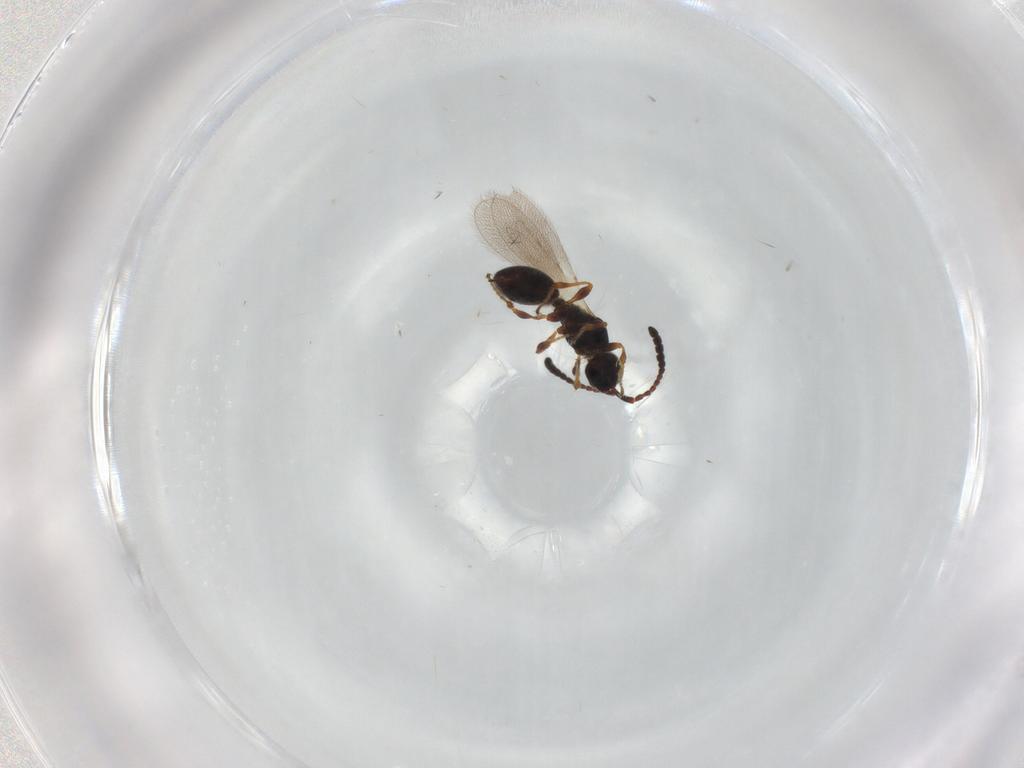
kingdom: Animalia
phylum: Arthropoda
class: Insecta
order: Hymenoptera
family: Diapriidae
